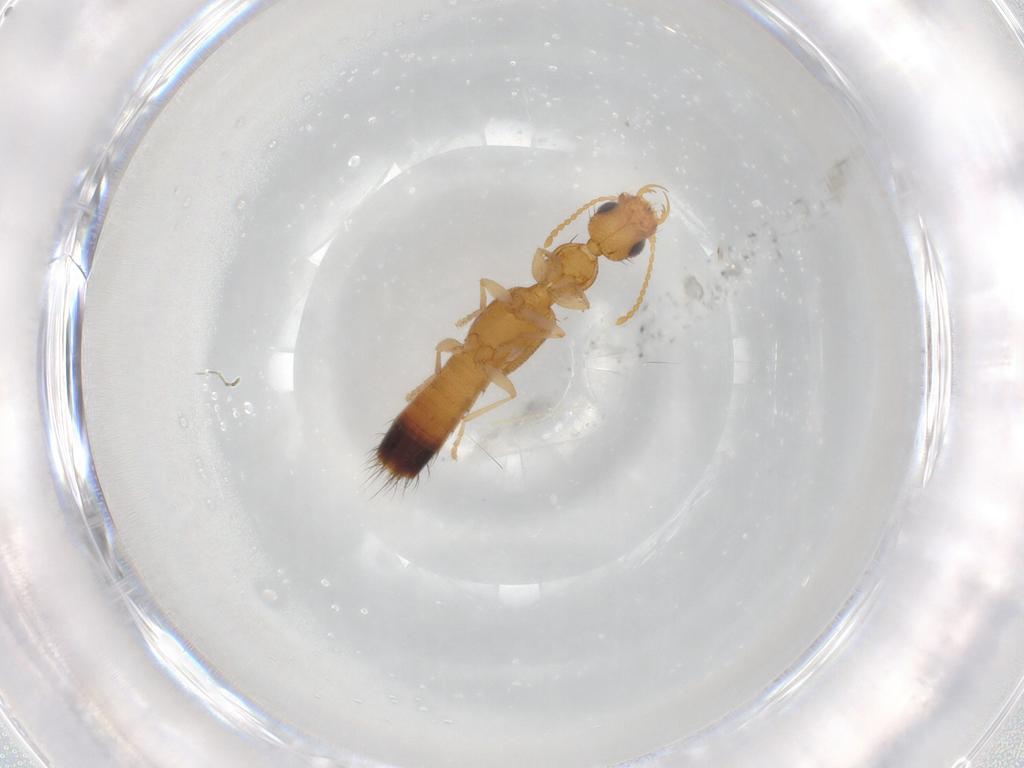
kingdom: Animalia
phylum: Arthropoda
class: Insecta
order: Coleoptera
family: Staphylinidae
